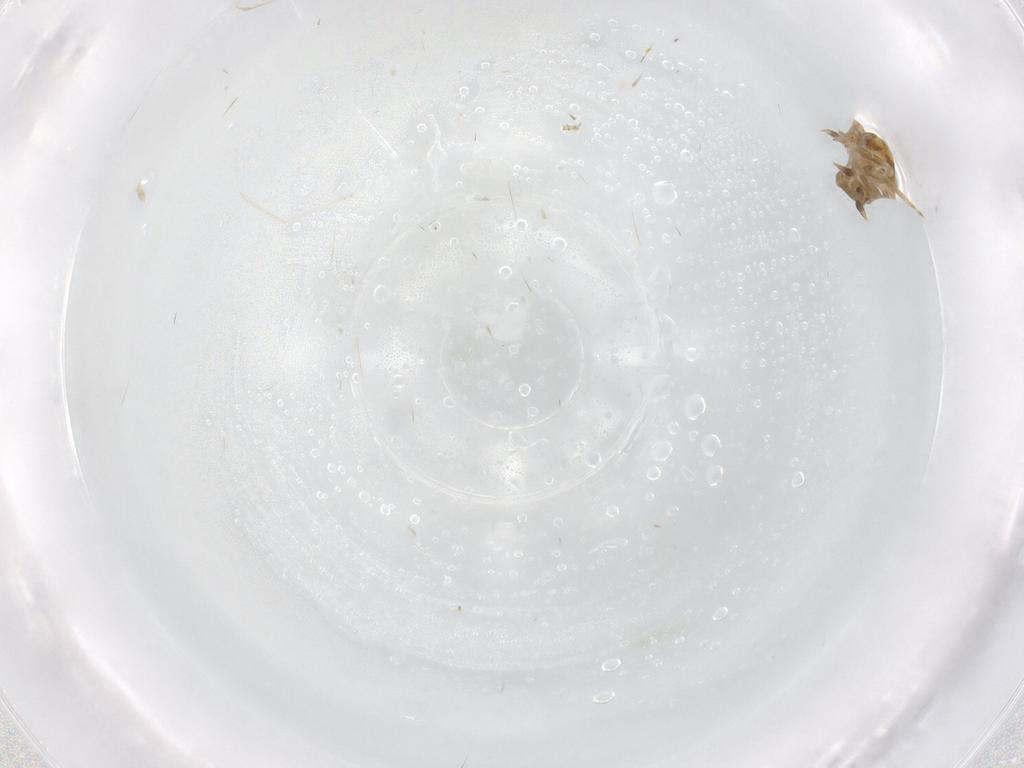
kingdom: Animalia
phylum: Arthropoda
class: Insecta
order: Hemiptera
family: Flatidae
